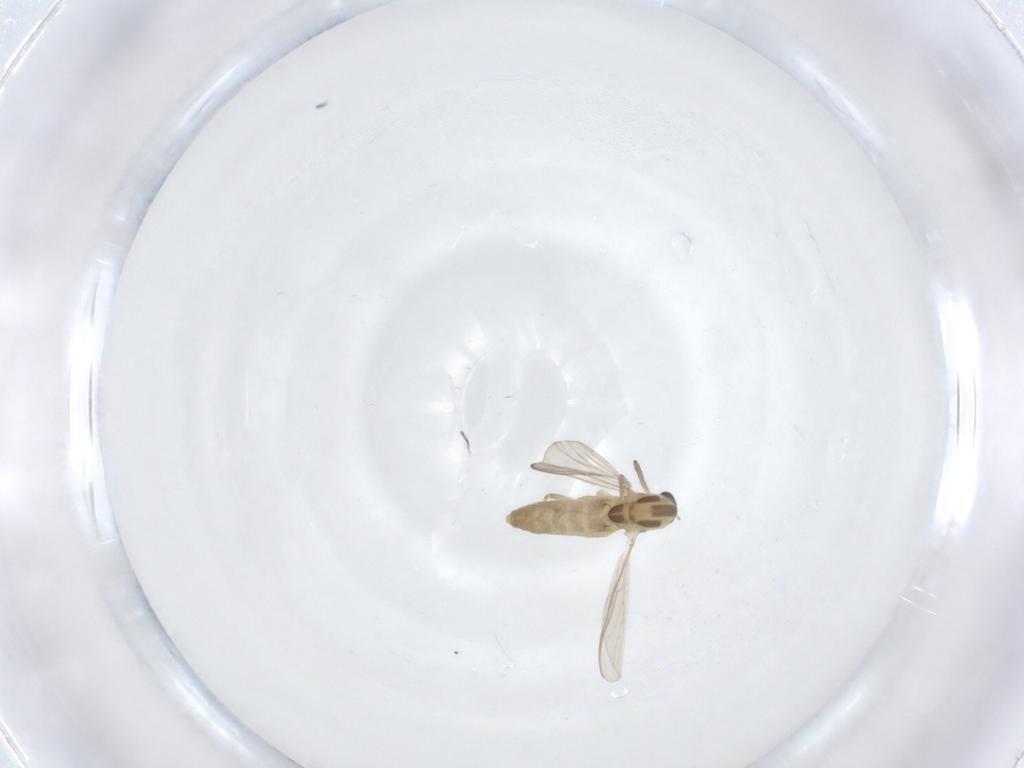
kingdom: Animalia
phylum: Arthropoda
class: Insecta
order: Diptera
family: Chironomidae
